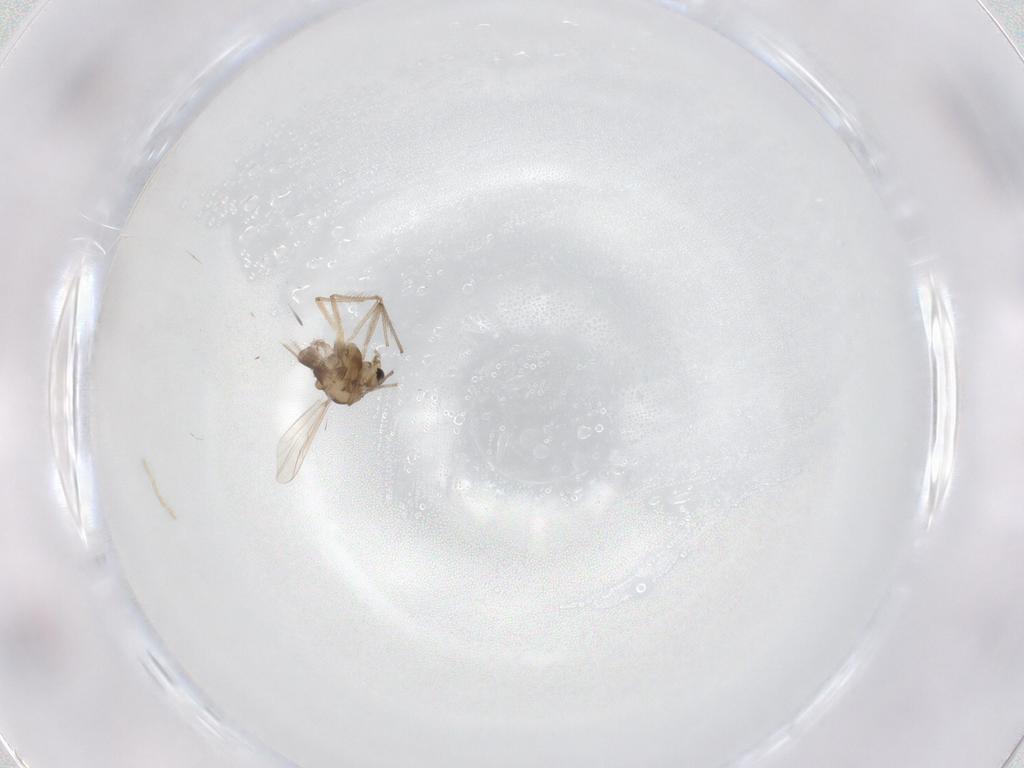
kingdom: Animalia
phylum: Arthropoda
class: Insecta
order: Diptera
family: Chironomidae
